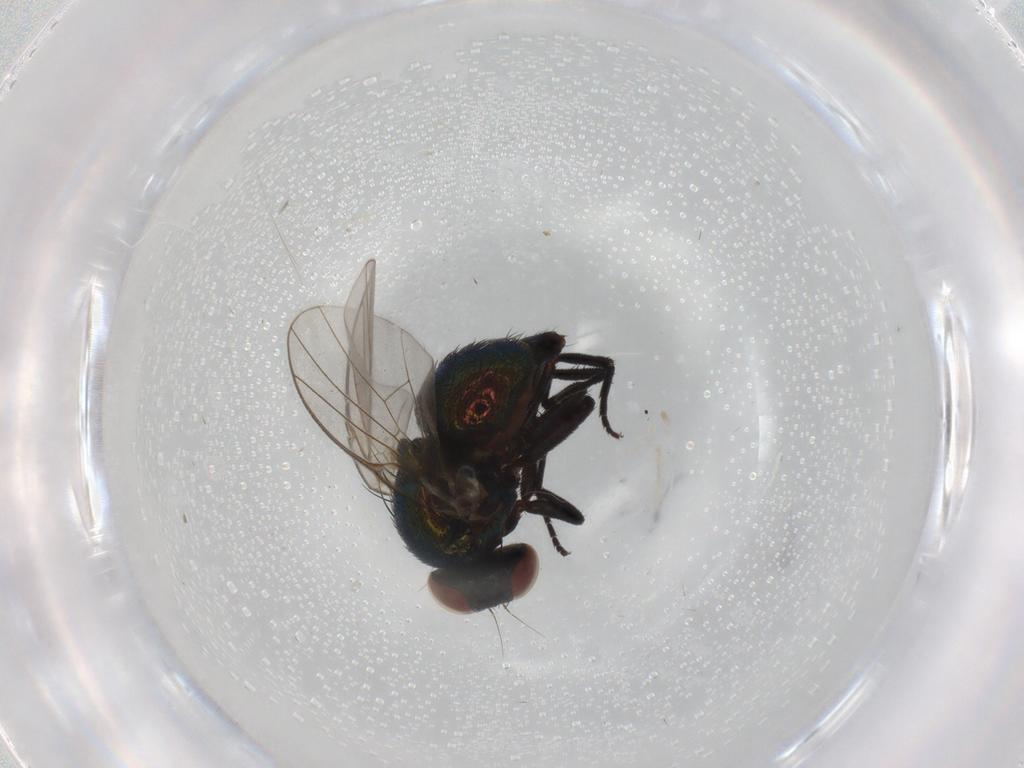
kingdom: Animalia
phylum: Arthropoda
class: Insecta
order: Diptera
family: Agromyzidae
